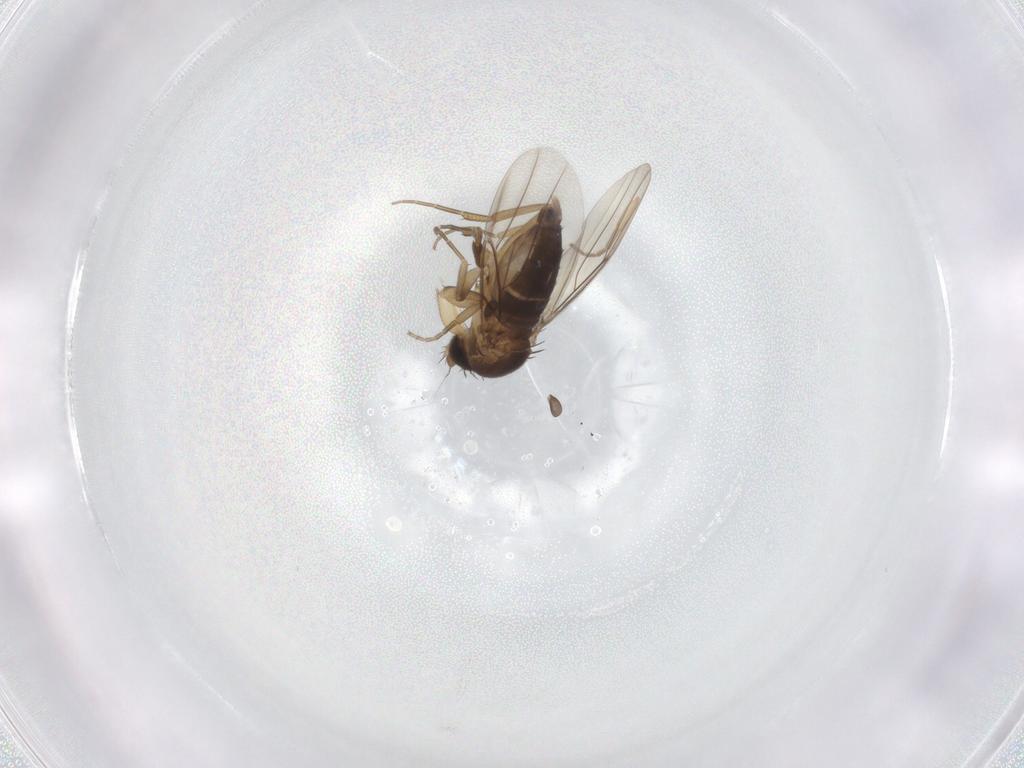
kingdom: Animalia
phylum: Arthropoda
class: Insecta
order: Diptera
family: Phoridae
